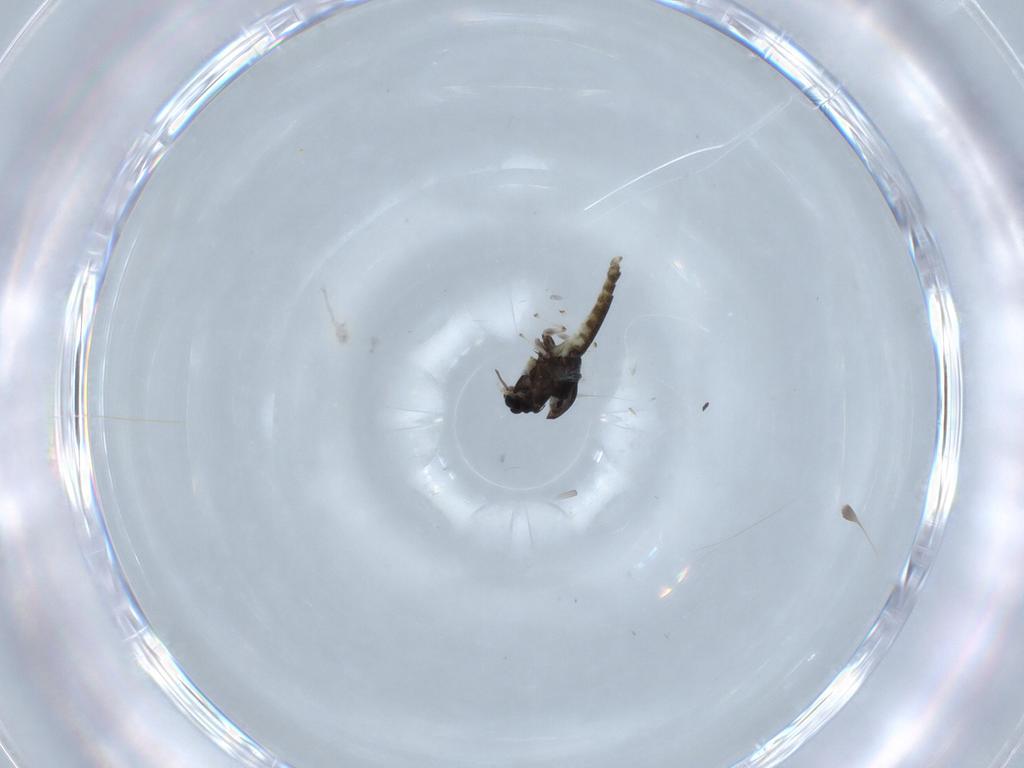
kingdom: Animalia
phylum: Arthropoda
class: Insecta
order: Diptera
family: Chironomidae
